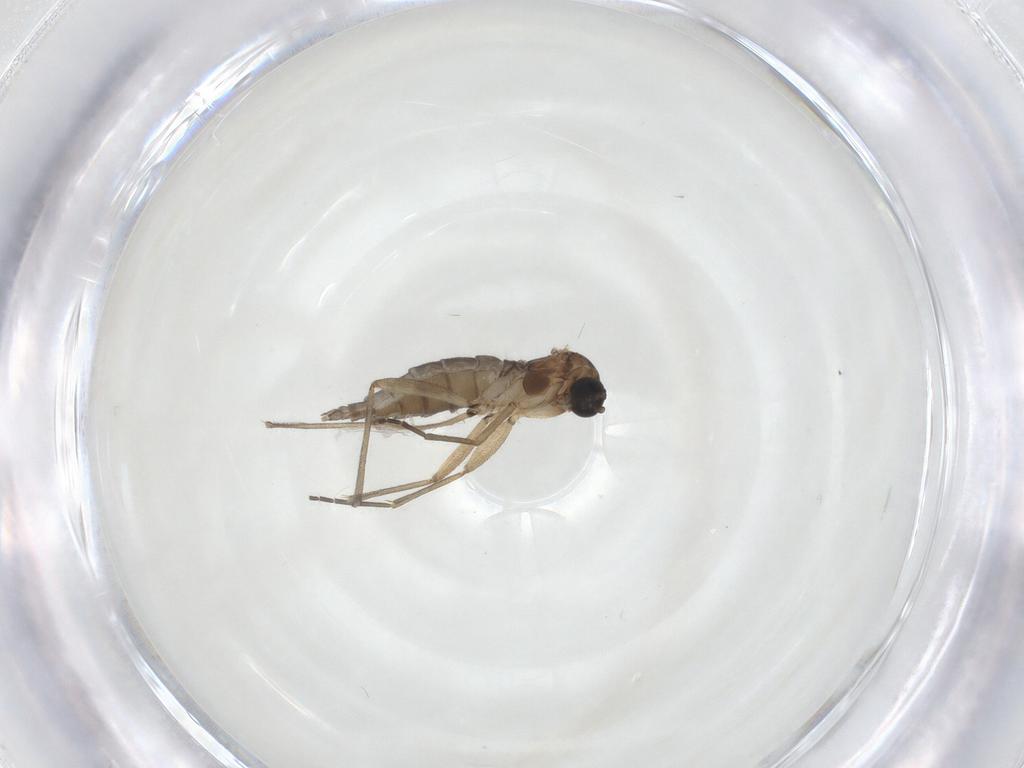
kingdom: Animalia
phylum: Arthropoda
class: Insecta
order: Diptera
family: Sciaridae
